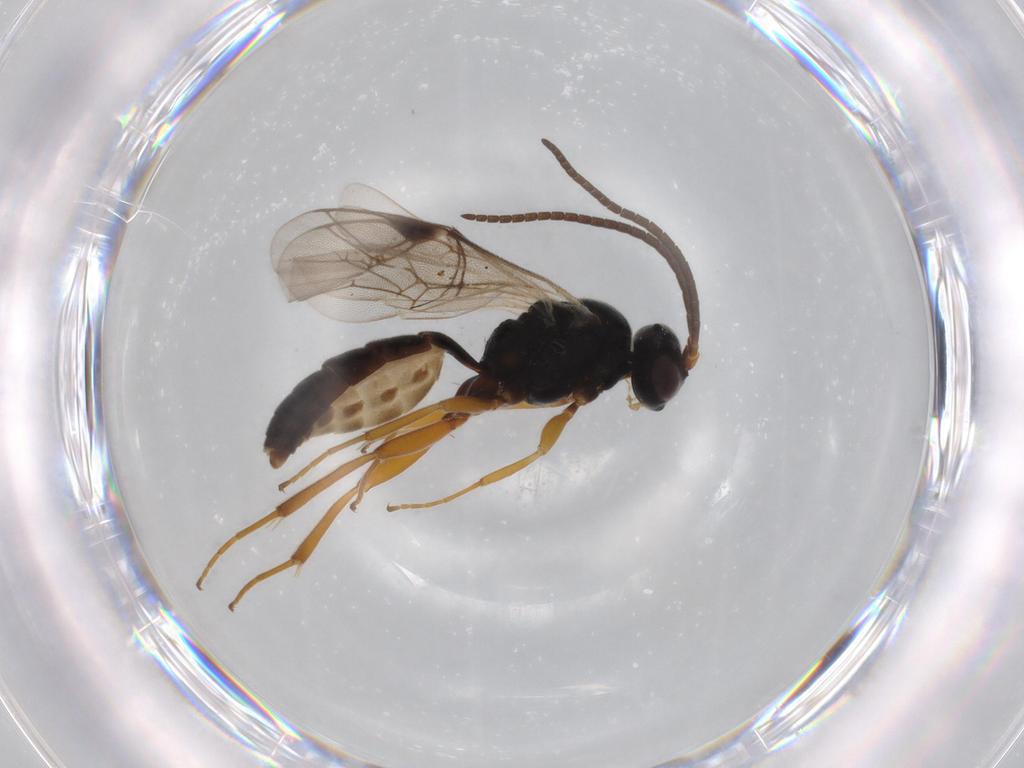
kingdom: Animalia
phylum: Arthropoda
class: Insecta
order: Hymenoptera
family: Ichneumonidae
